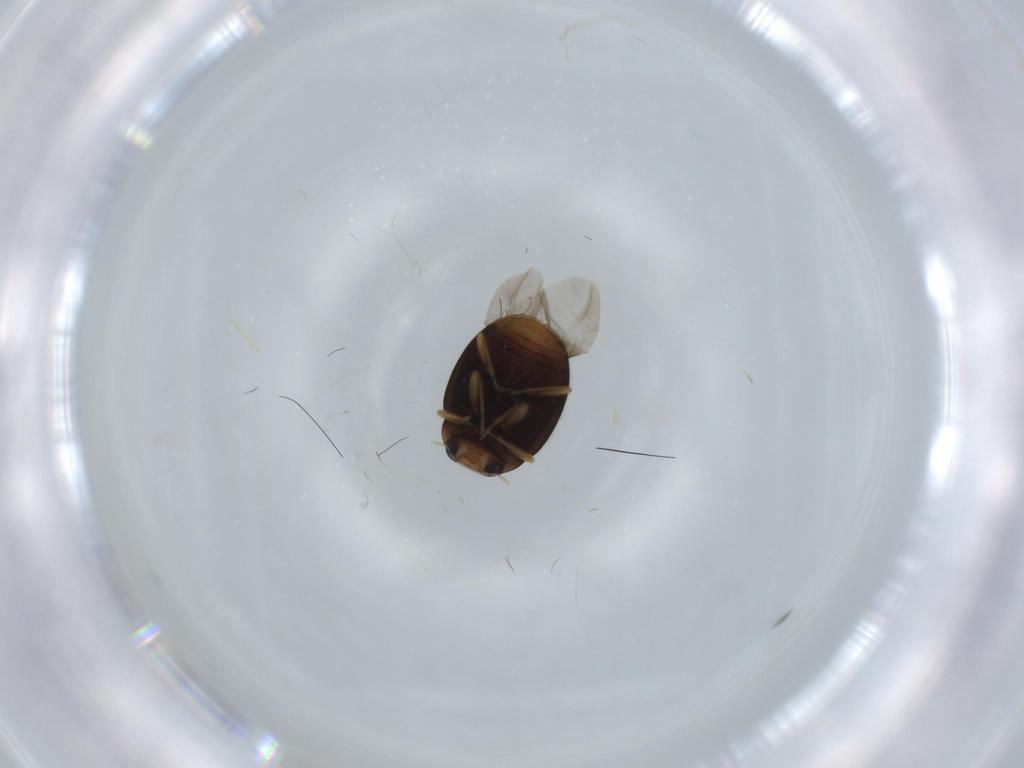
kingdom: Animalia
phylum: Arthropoda
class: Insecta
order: Coleoptera
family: Bostrichidae
